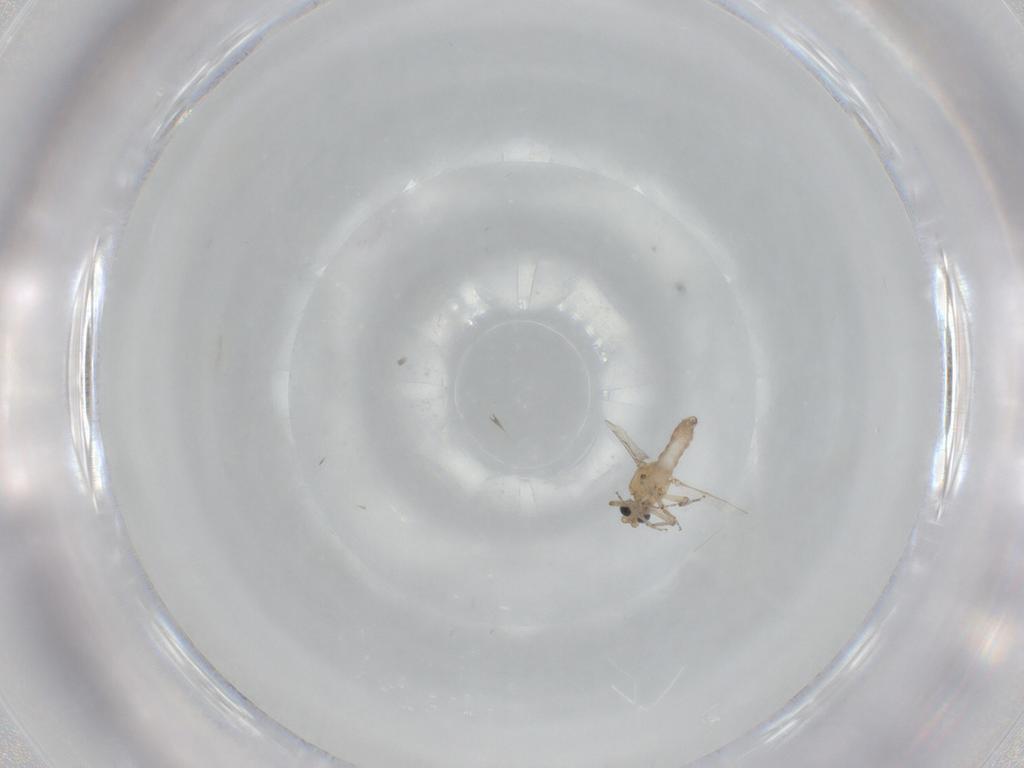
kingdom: Animalia
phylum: Arthropoda
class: Insecta
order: Diptera
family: Ceratopogonidae
